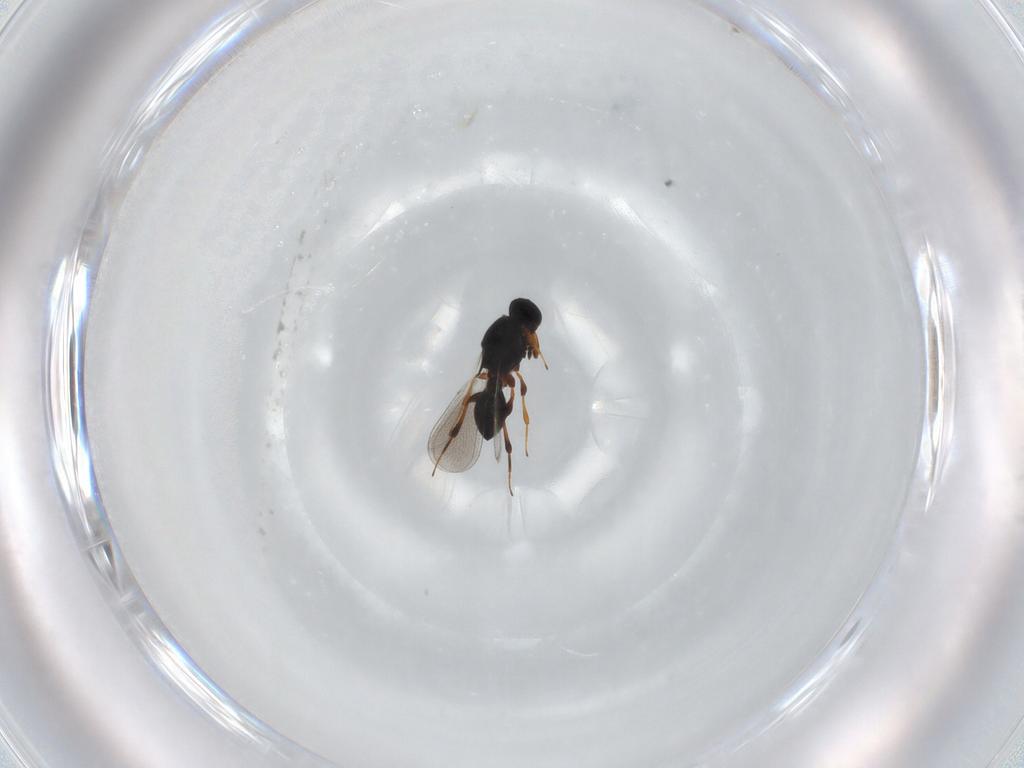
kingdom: Animalia
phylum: Arthropoda
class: Insecta
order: Hymenoptera
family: Platygastridae
